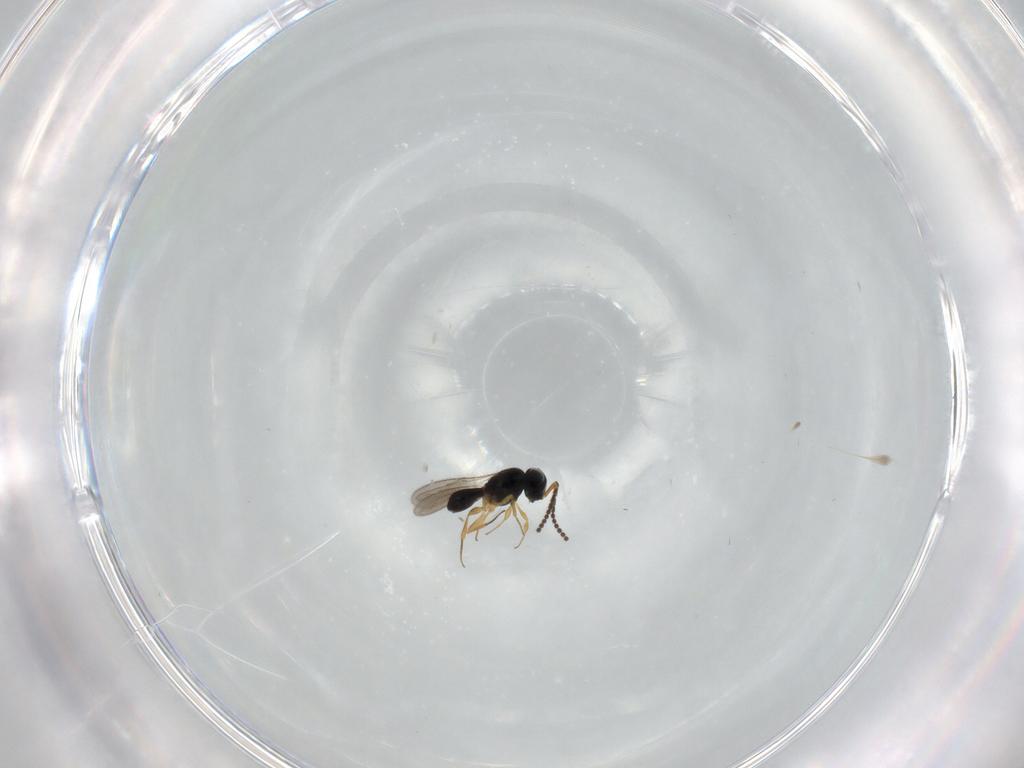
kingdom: Animalia
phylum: Arthropoda
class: Insecta
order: Hymenoptera
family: Scelionidae
